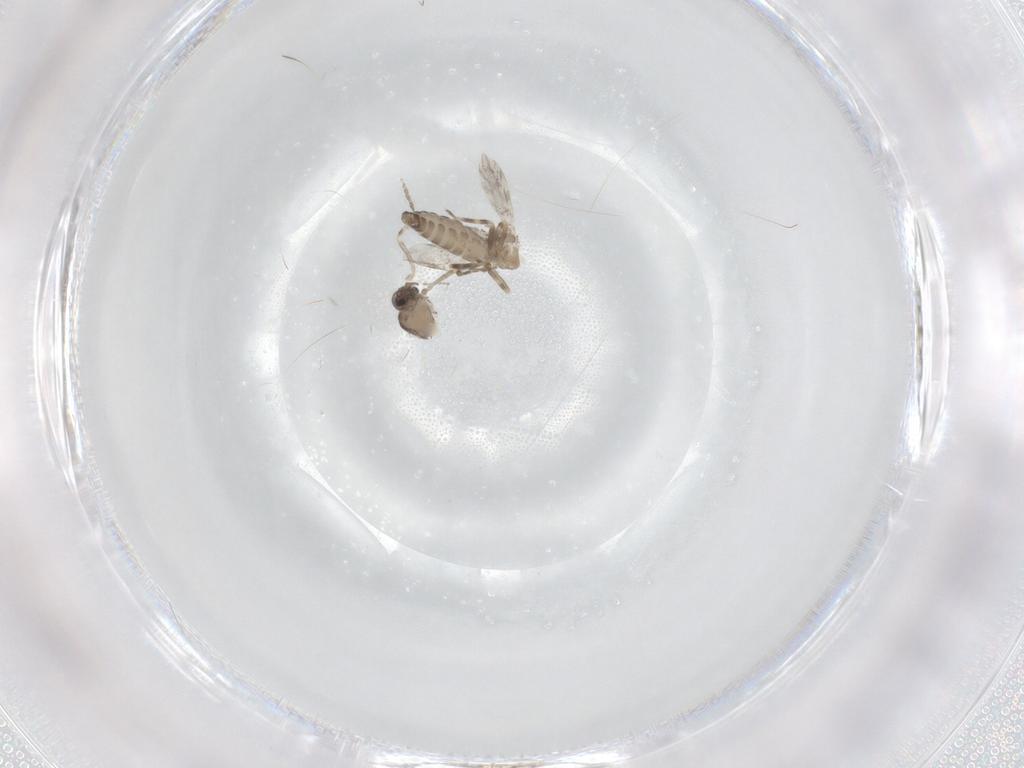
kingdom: Animalia
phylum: Arthropoda
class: Insecta
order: Diptera
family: Ceratopogonidae
